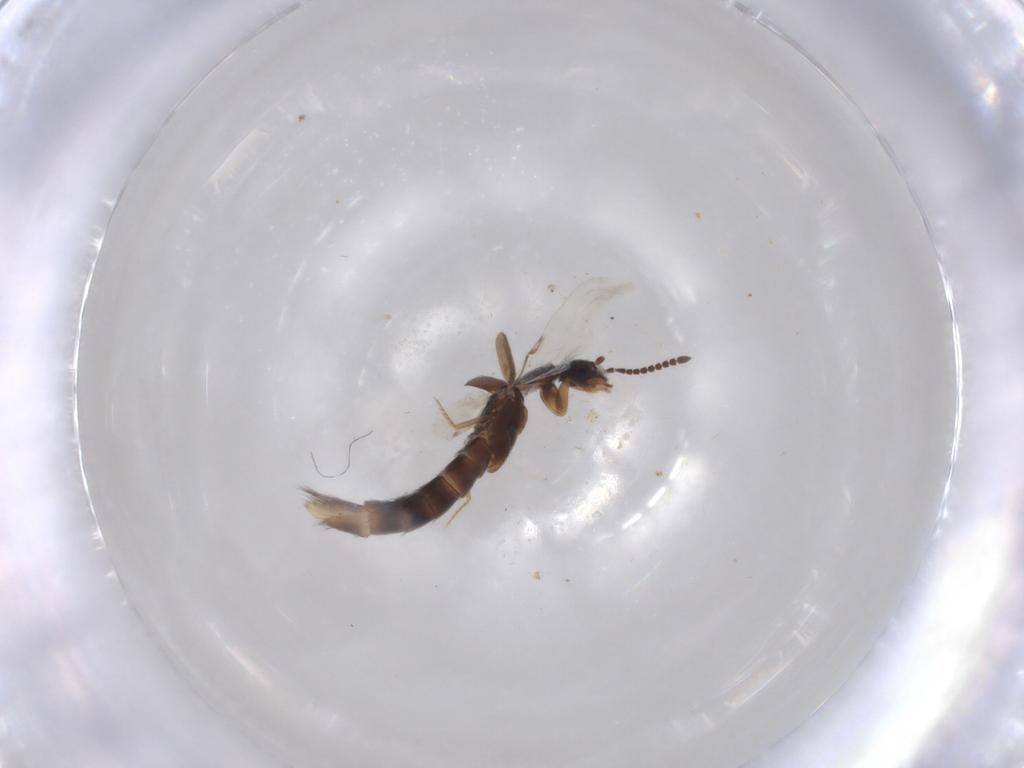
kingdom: Animalia
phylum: Arthropoda
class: Insecta
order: Coleoptera
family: Staphylinidae
